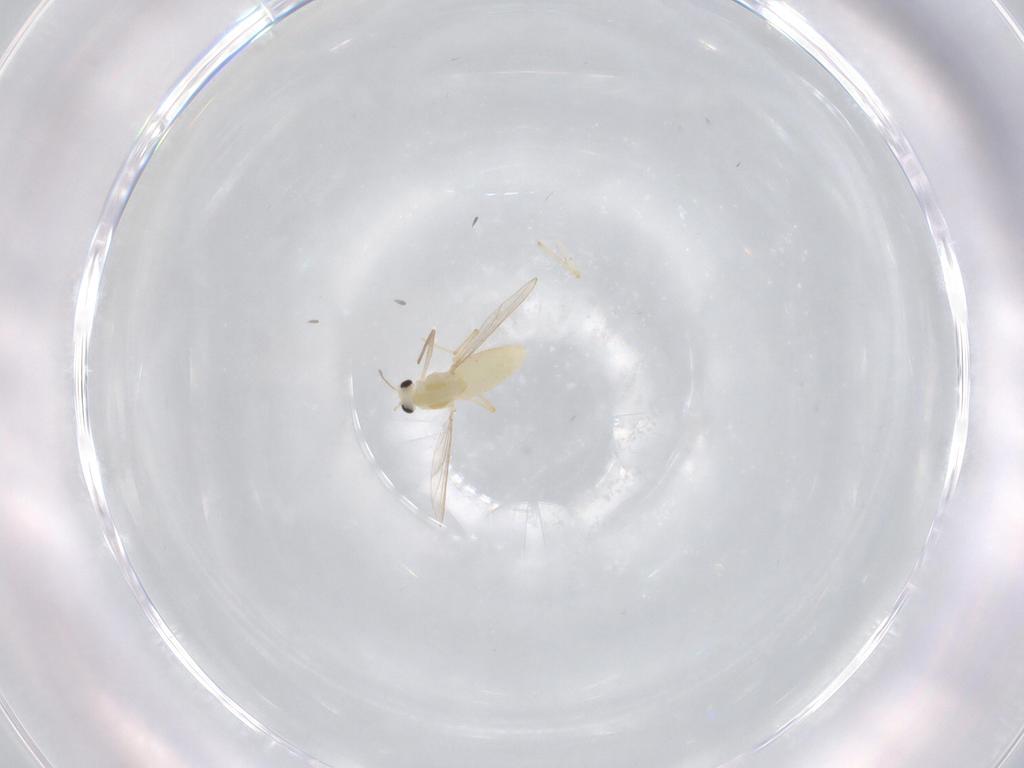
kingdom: Animalia
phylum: Arthropoda
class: Insecta
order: Diptera
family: Chironomidae
